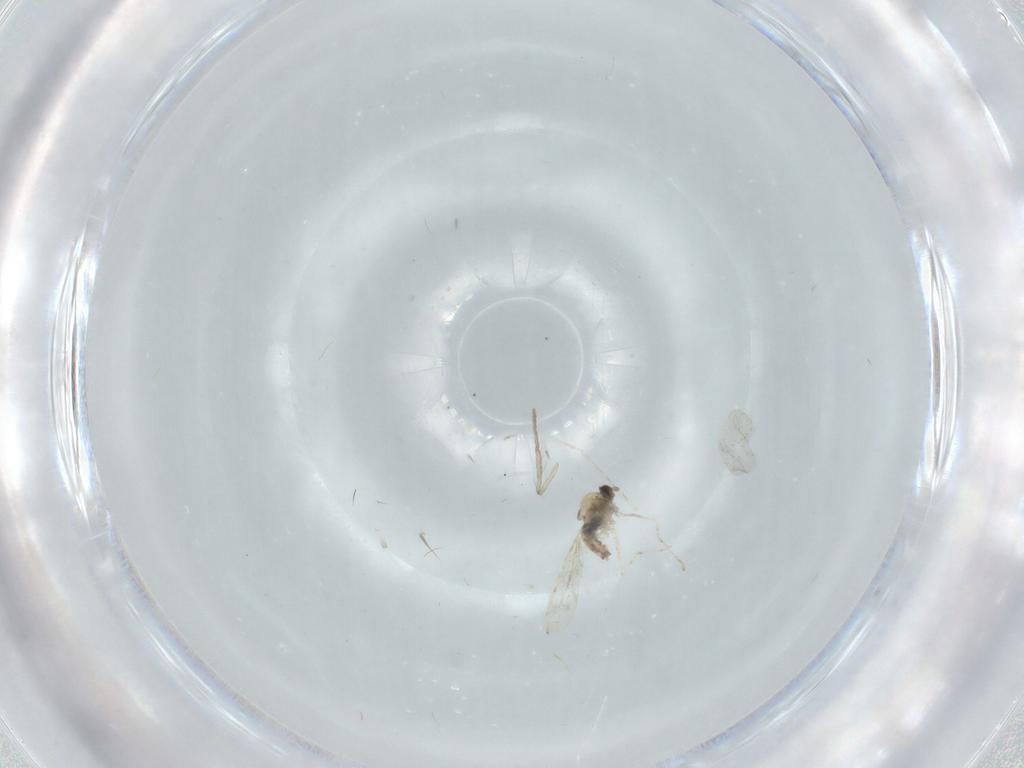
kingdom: Animalia
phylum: Arthropoda
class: Insecta
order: Diptera
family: Cecidomyiidae
